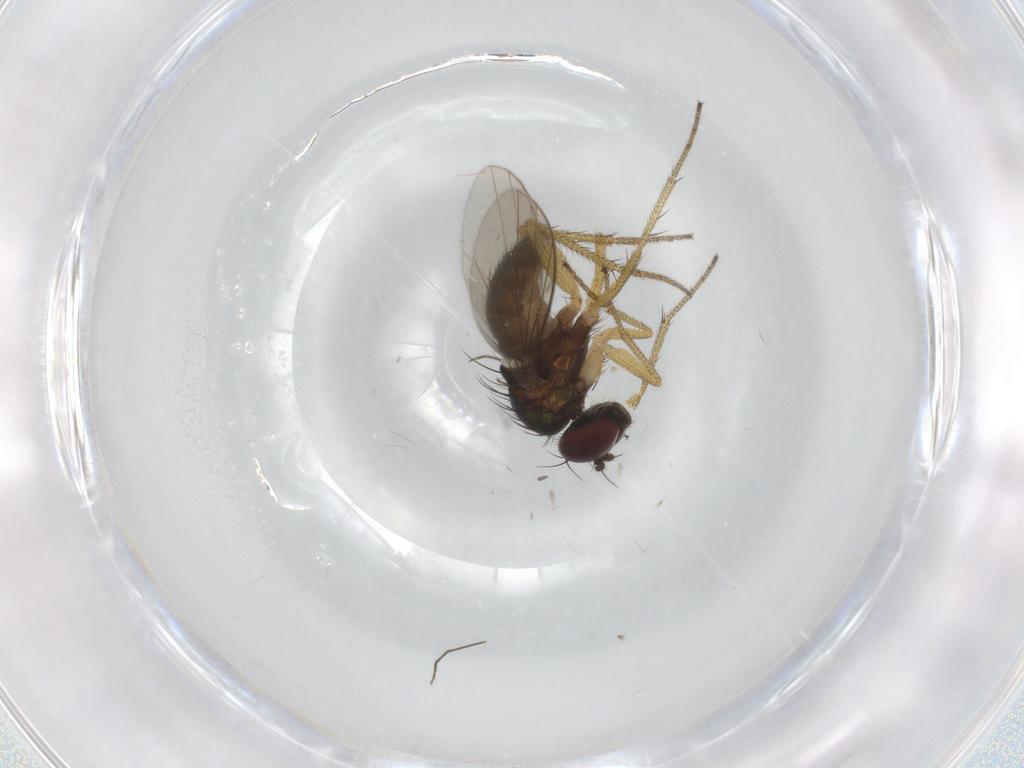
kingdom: Animalia
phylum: Arthropoda
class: Insecta
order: Diptera
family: Chironomidae
